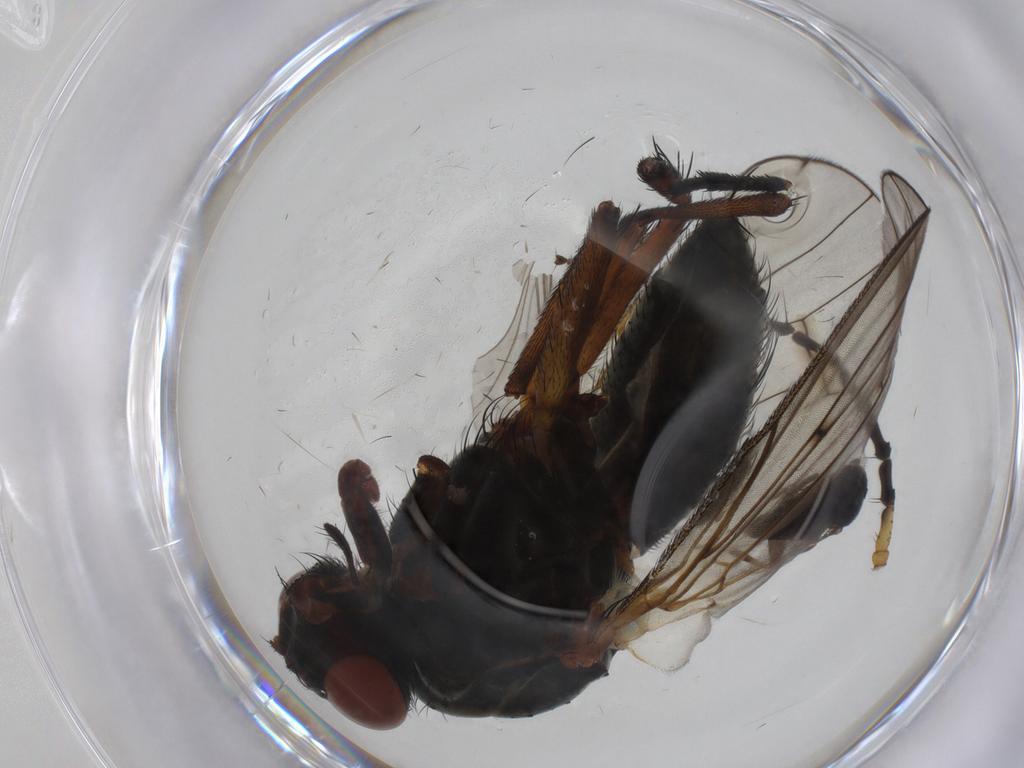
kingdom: Animalia
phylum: Arthropoda
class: Insecta
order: Diptera
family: Anthomyiidae
